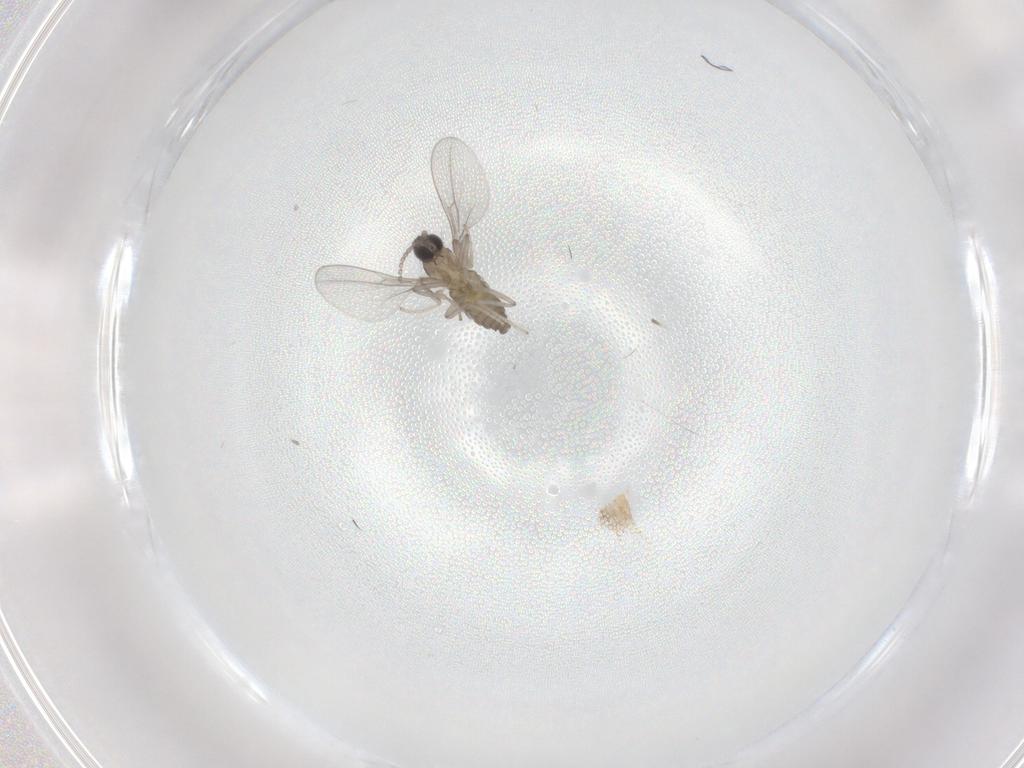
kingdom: Animalia
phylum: Arthropoda
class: Insecta
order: Diptera
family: Cecidomyiidae
